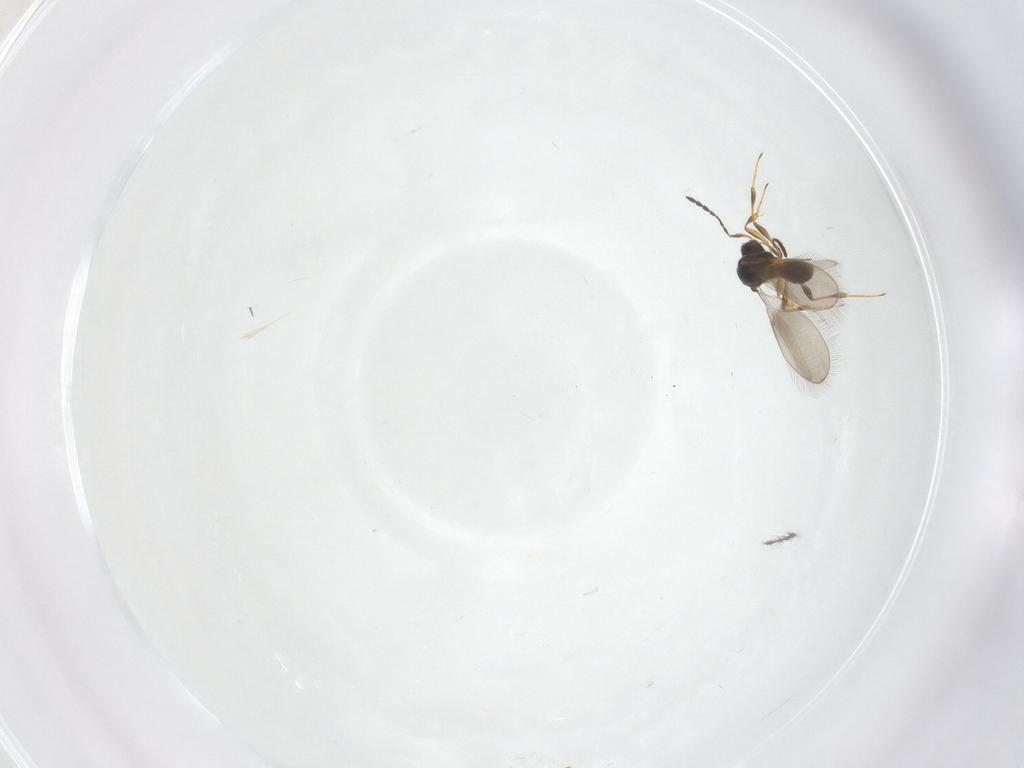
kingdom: Animalia
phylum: Arthropoda
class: Insecta
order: Hymenoptera
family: Platygastridae
